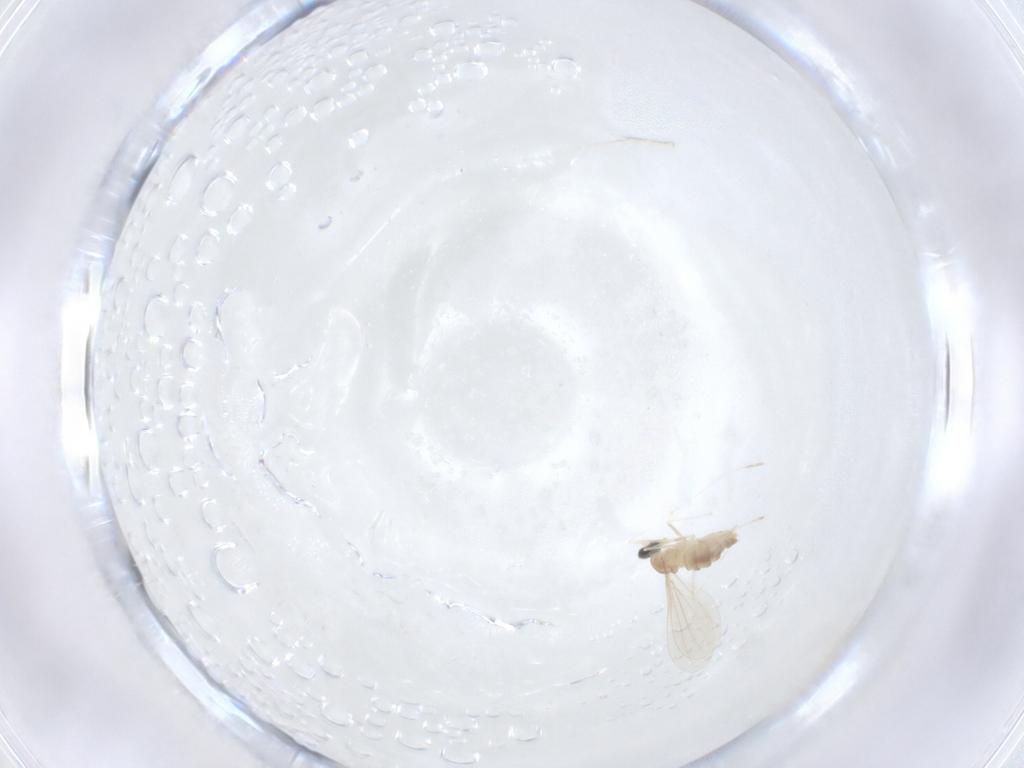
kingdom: Animalia
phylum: Arthropoda
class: Insecta
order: Diptera
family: Cecidomyiidae
